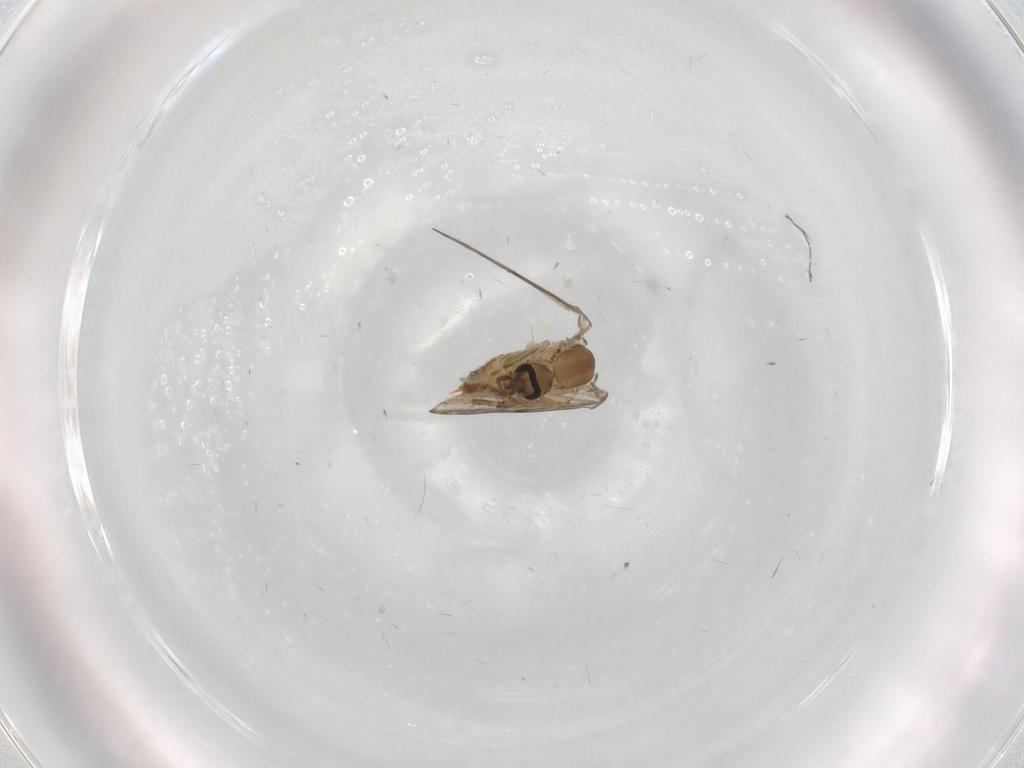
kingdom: Animalia
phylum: Arthropoda
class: Insecta
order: Diptera
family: Psychodidae
